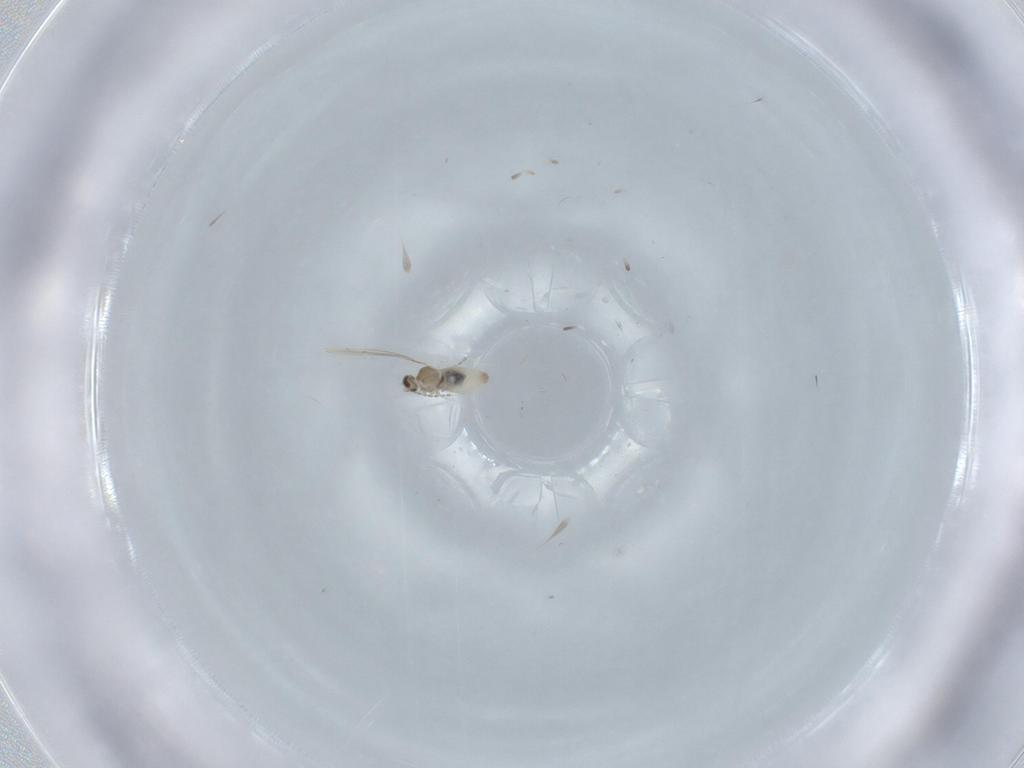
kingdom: Animalia
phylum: Arthropoda
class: Insecta
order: Diptera
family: Cecidomyiidae
